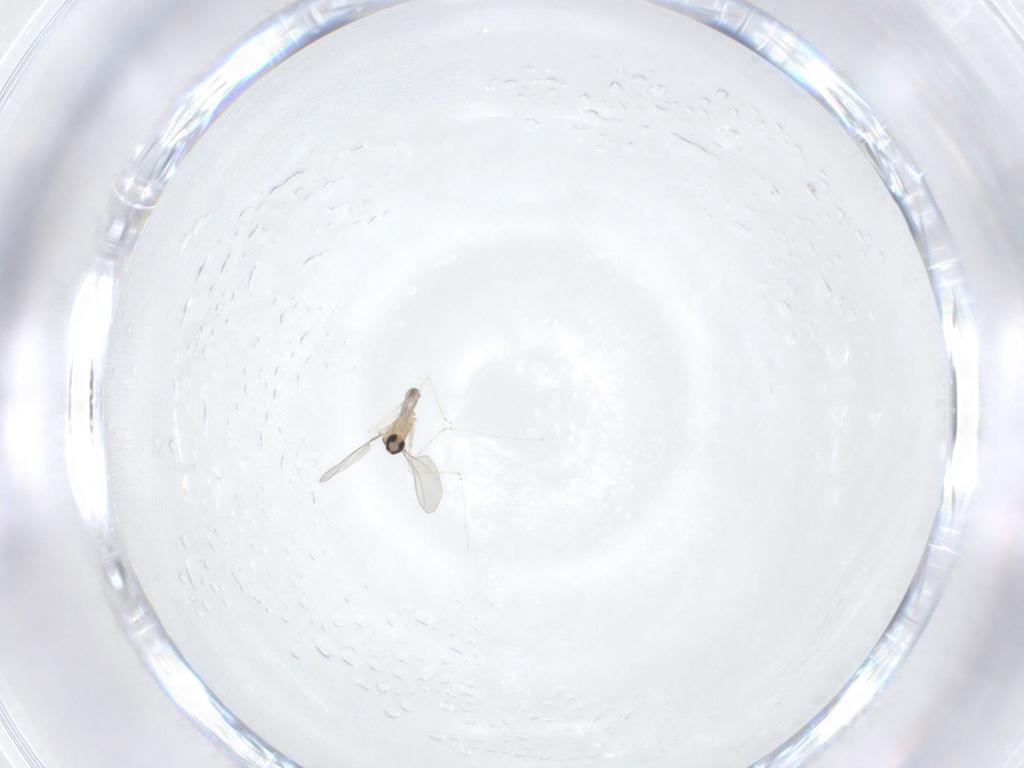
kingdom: Animalia
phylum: Arthropoda
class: Insecta
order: Diptera
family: Cecidomyiidae
